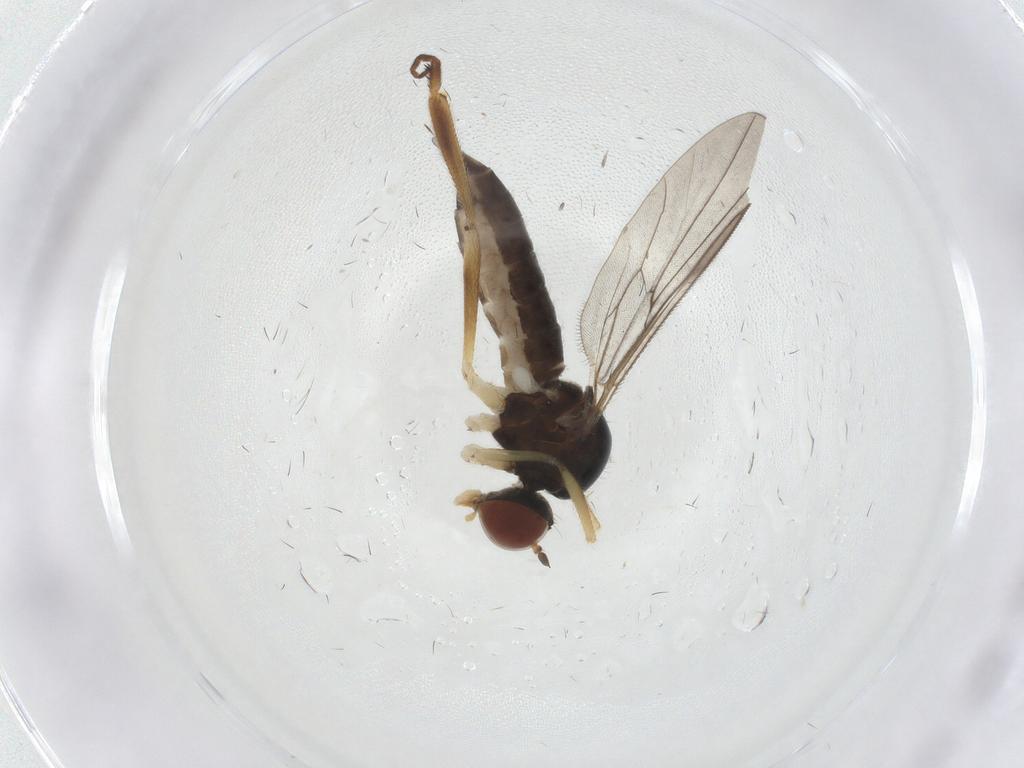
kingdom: Animalia
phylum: Arthropoda
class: Insecta
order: Diptera
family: Hybotidae
